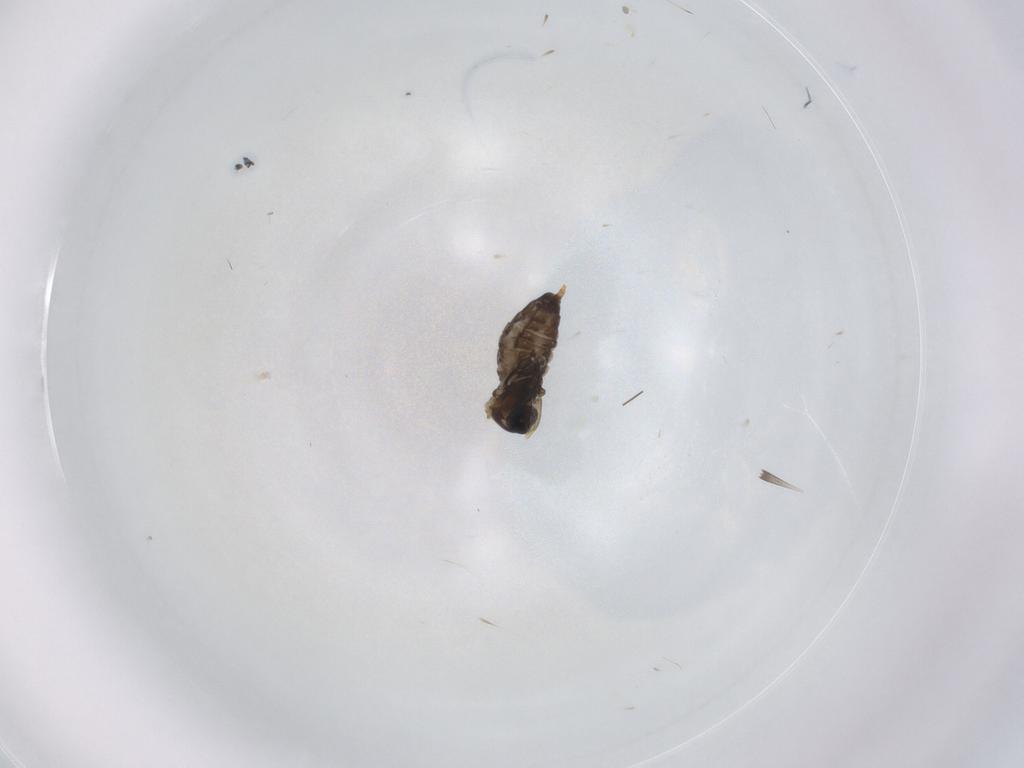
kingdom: Animalia
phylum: Arthropoda
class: Insecta
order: Diptera
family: Cecidomyiidae
